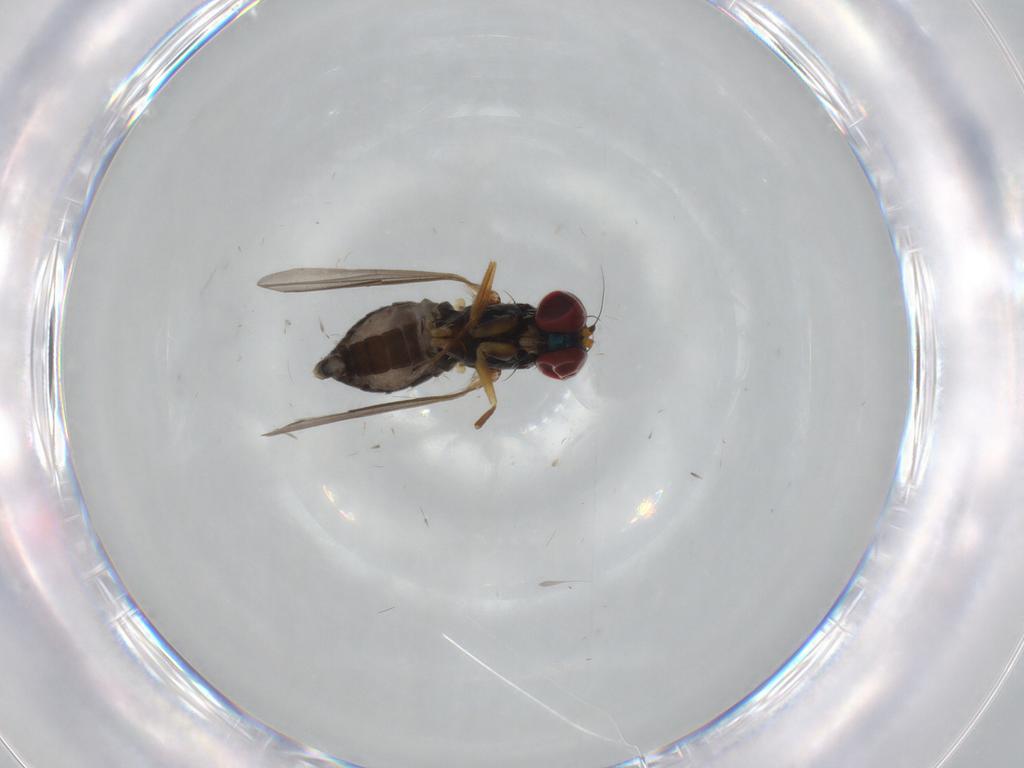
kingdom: Animalia
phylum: Arthropoda
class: Insecta
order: Diptera
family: Dolichopodidae
